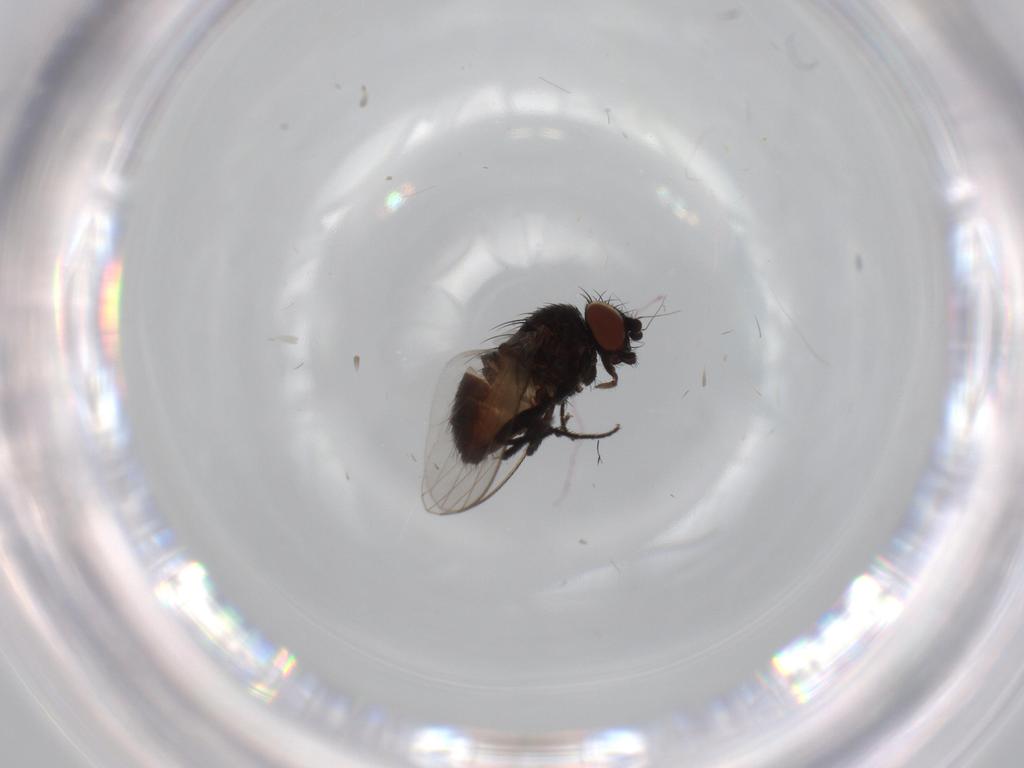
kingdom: Animalia
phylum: Arthropoda
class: Insecta
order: Diptera
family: Milichiidae
